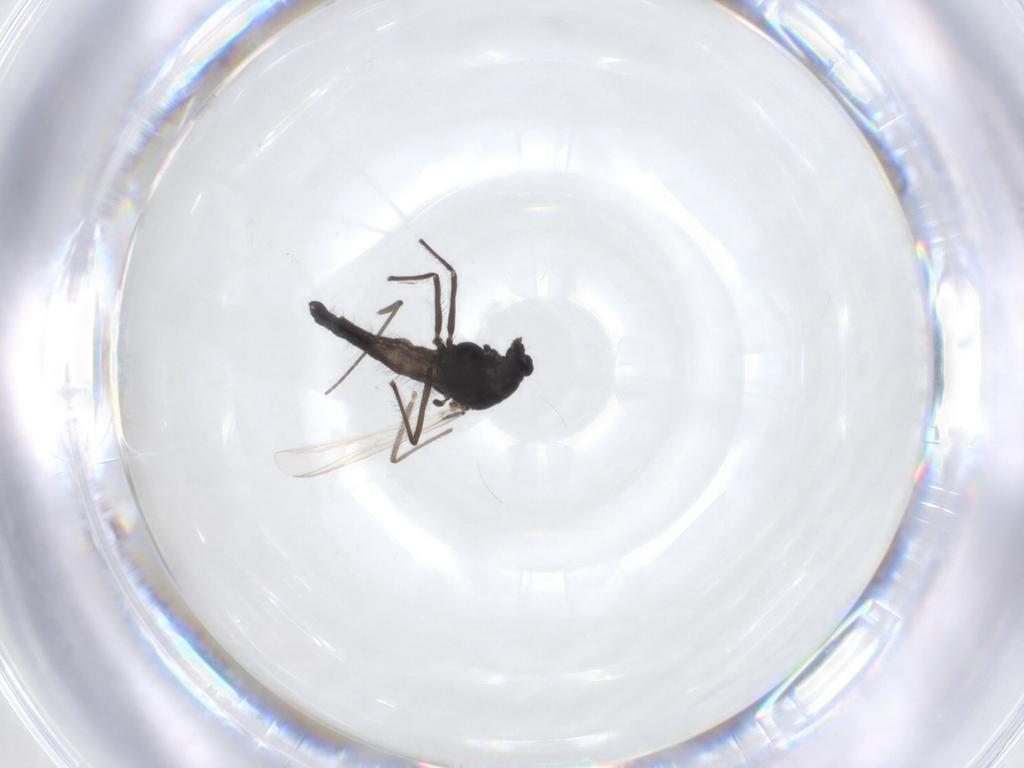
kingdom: Animalia
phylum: Arthropoda
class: Insecta
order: Diptera
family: Chironomidae
